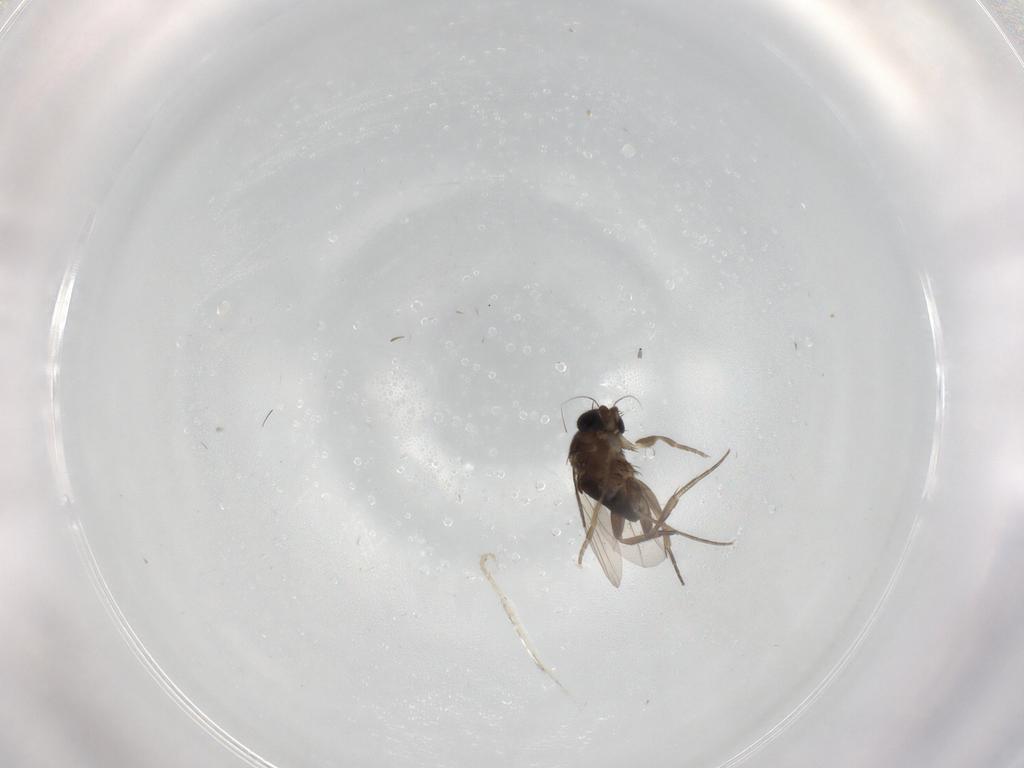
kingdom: Animalia
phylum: Arthropoda
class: Insecta
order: Diptera
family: Phoridae
